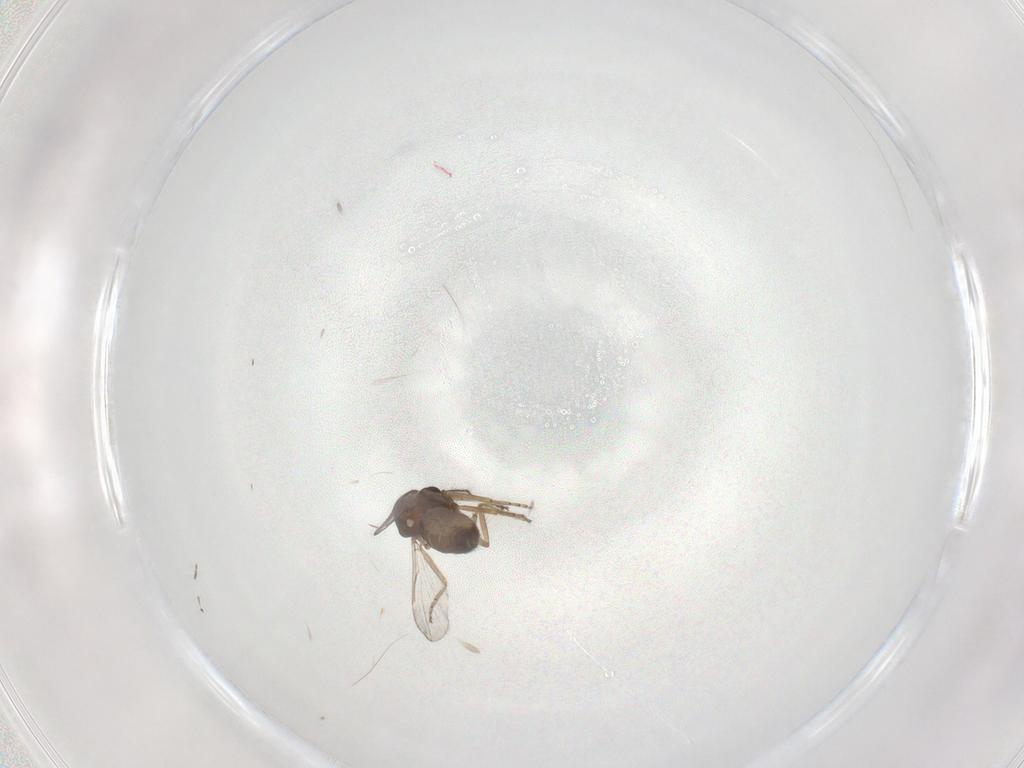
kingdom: Animalia
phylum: Arthropoda
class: Insecta
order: Diptera
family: Ceratopogonidae
